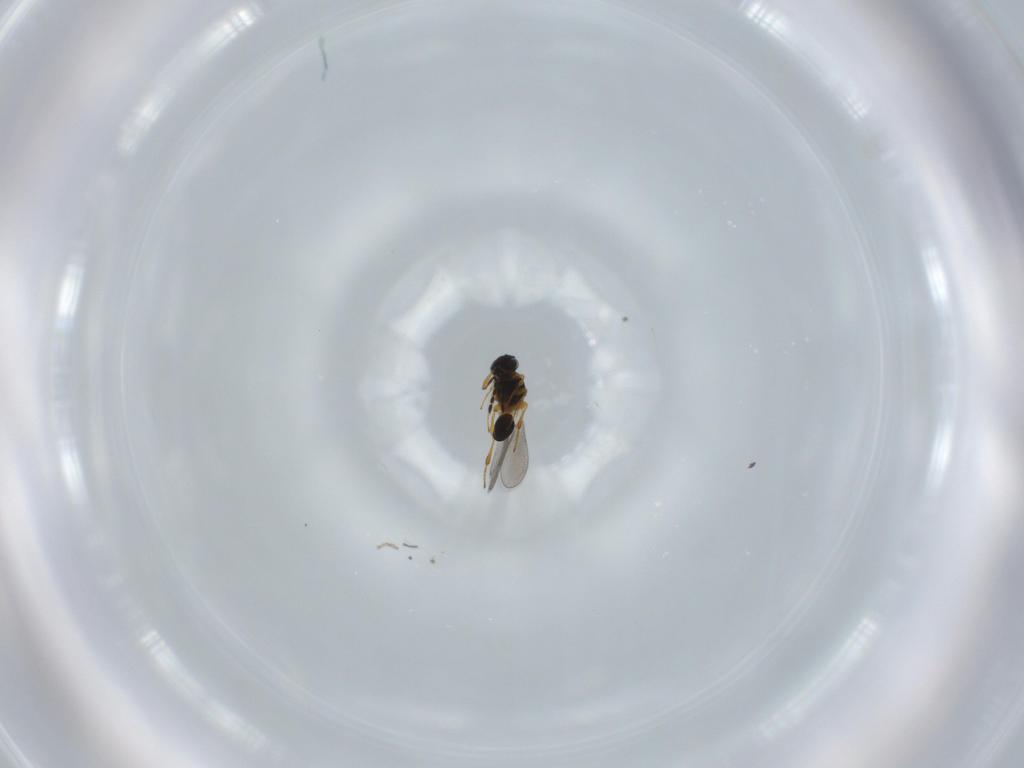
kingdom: Animalia
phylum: Arthropoda
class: Insecta
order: Hymenoptera
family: Platygastridae
